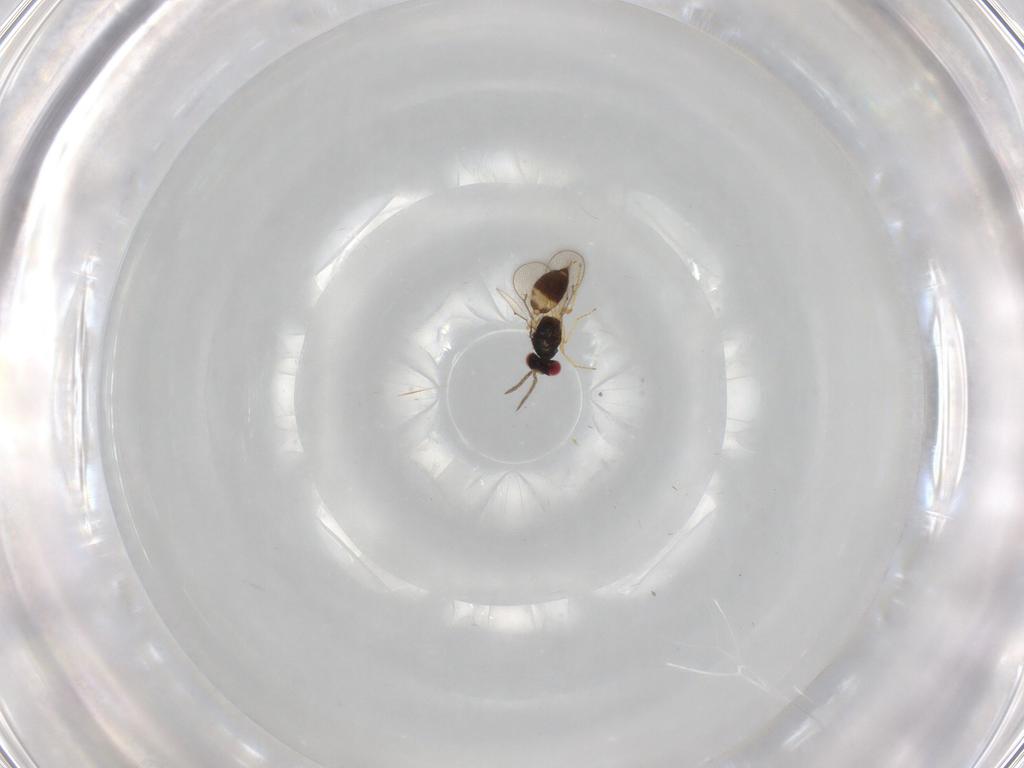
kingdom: Animalia
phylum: Arthropoda
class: Insecta
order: Hymenoptera
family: Eulophidae
